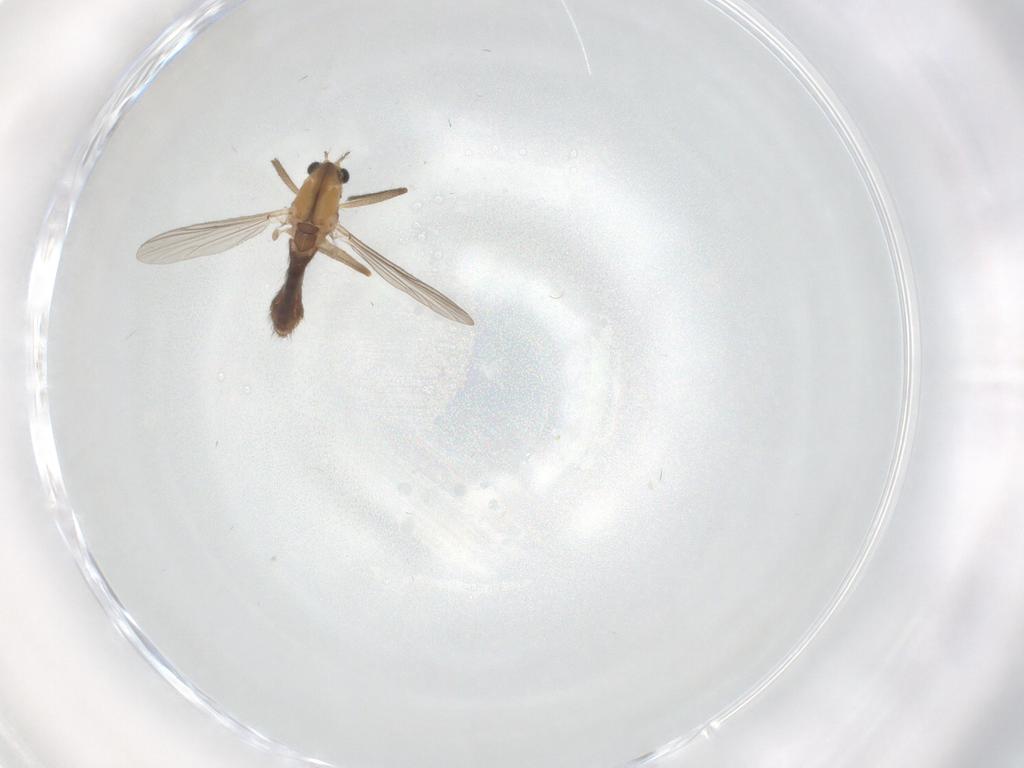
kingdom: Animalia
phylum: Arthropoda
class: Insecta
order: Diptera
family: Chironomidae
